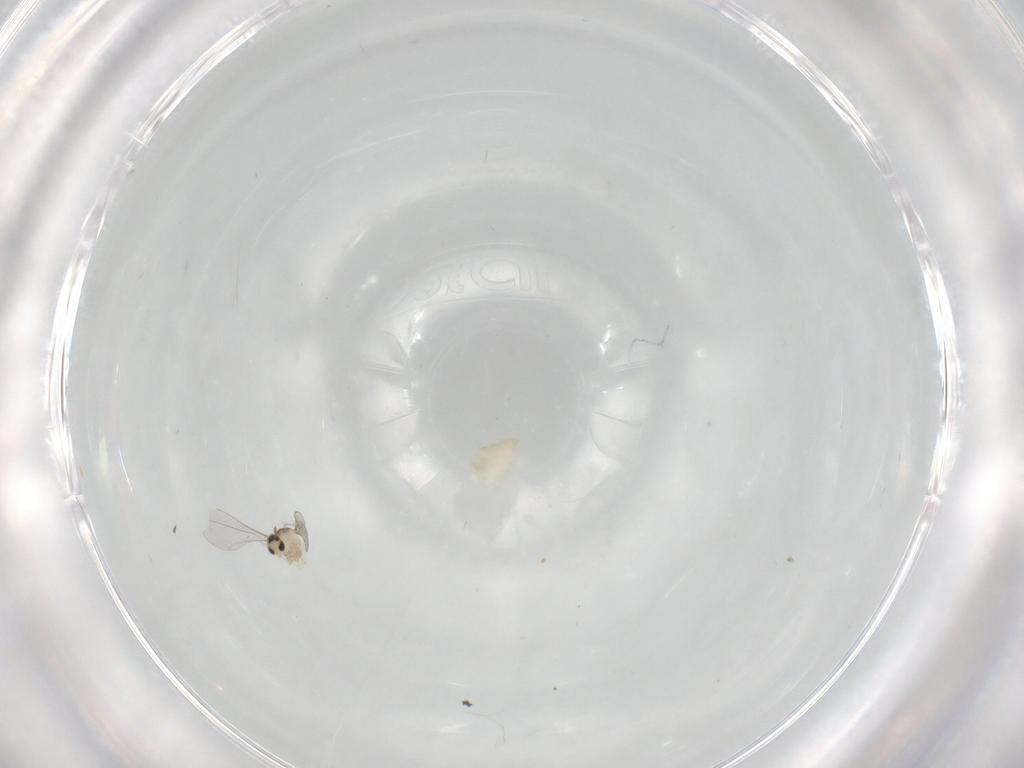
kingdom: Animalia
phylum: Arthropoda
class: Insecta
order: Diptera
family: Cecidomyiidae
